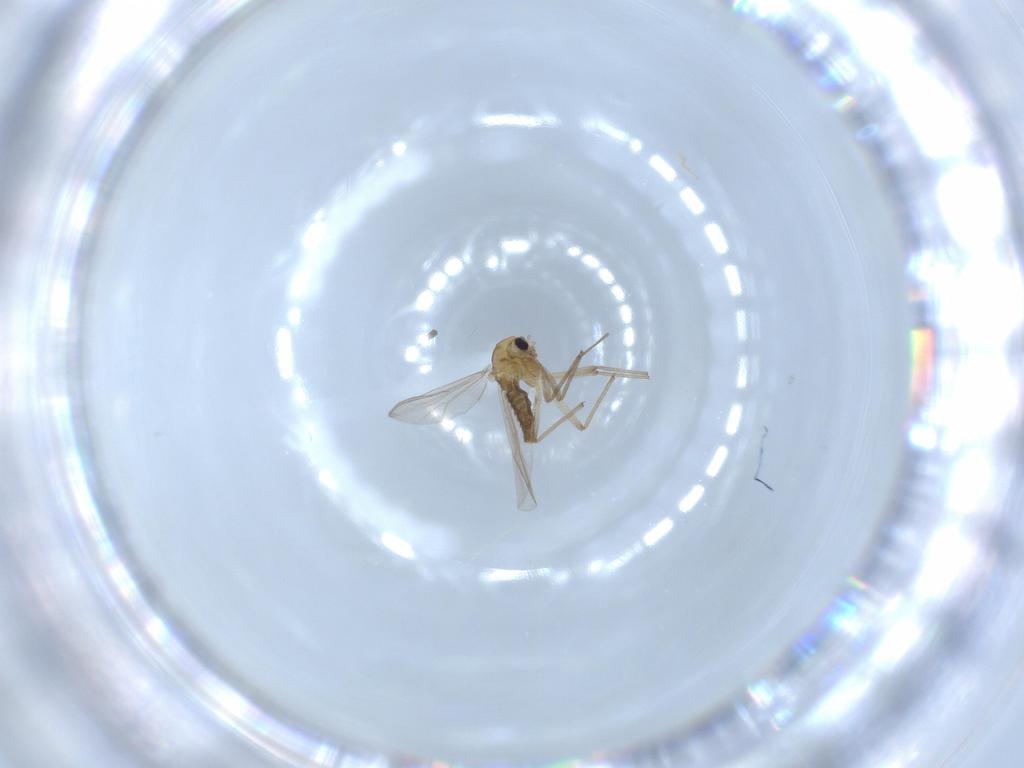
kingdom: Animalia
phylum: Arthropoda
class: Insecta
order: Diptera
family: Chironomidae
